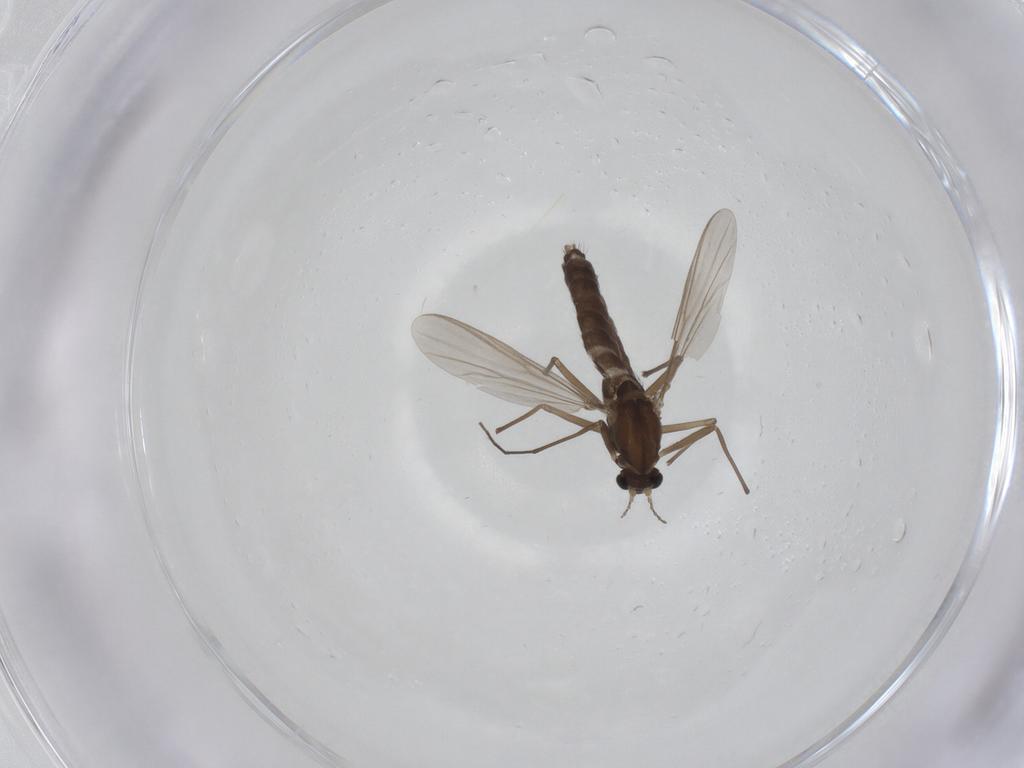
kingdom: Animalia
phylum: Arthropoda
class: Insecta
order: Diptera
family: Chironomidae
